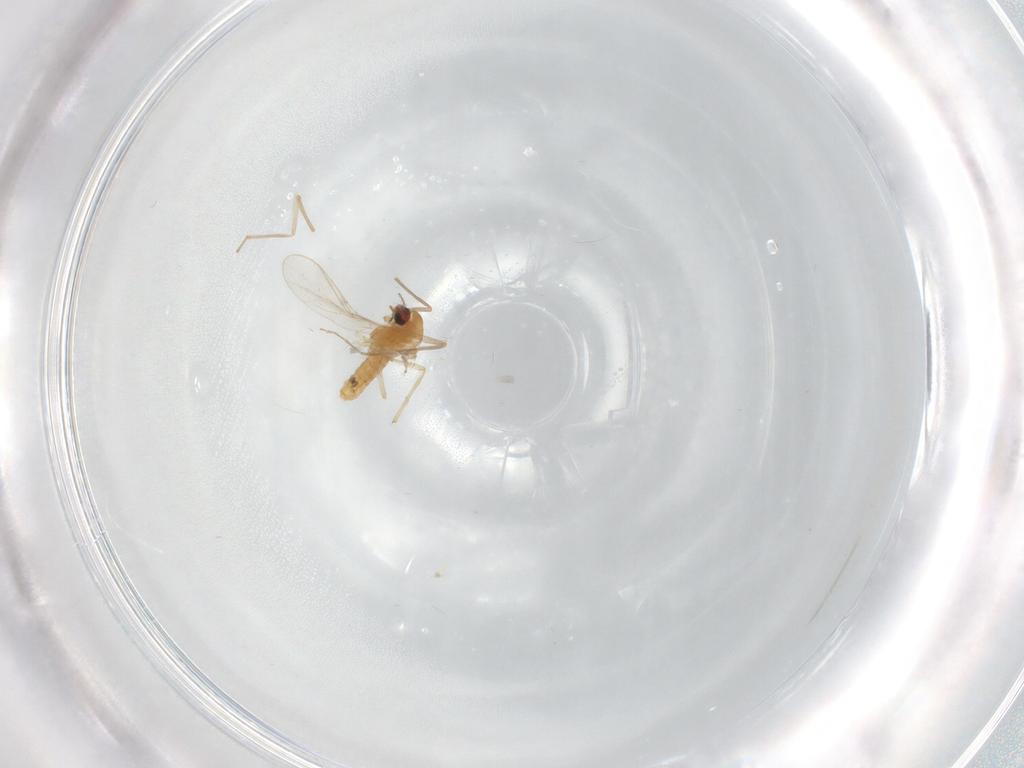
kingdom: Animalia
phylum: Arthropoda
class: Insecta
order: Diptera
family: Chironomidae
